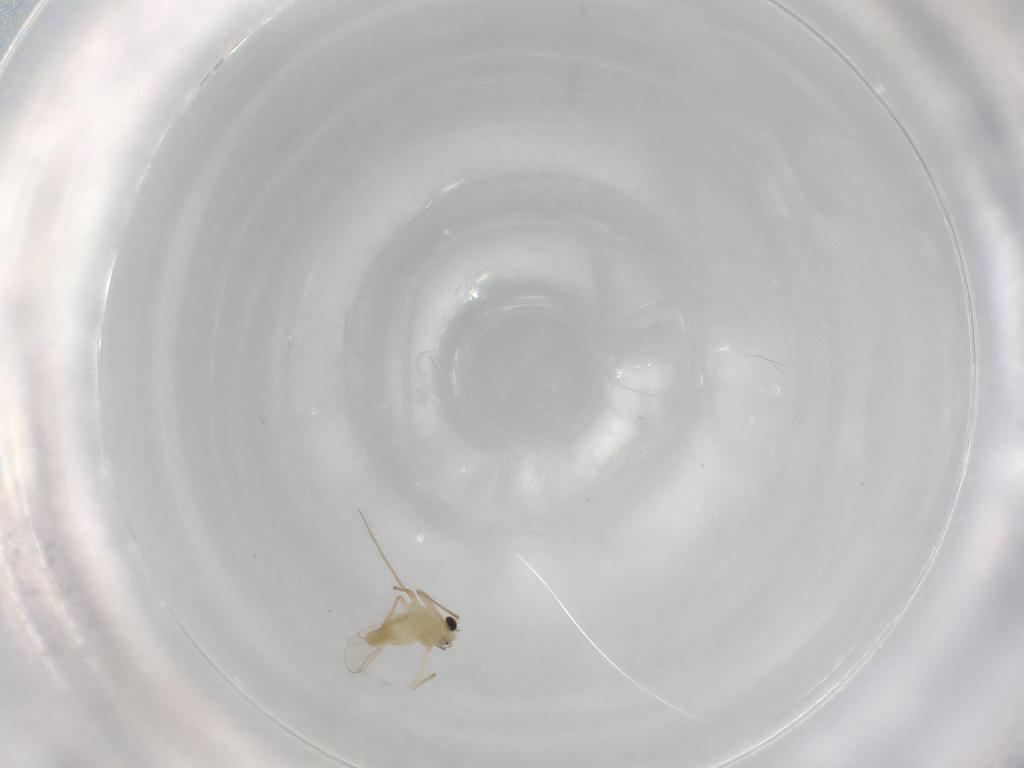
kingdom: Animalia
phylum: Arthropoda
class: Insecta
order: Diptera
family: Chironomidae
